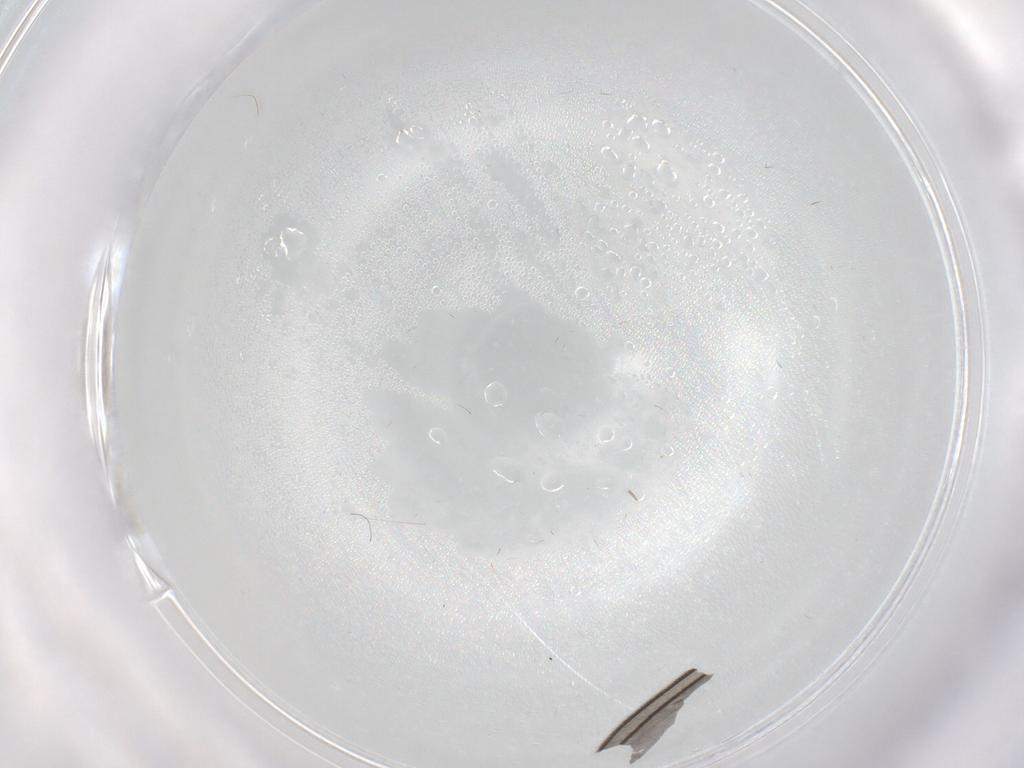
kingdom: Animalia
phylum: Arthropoda
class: Insecta
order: Diptera
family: Sciaridae
